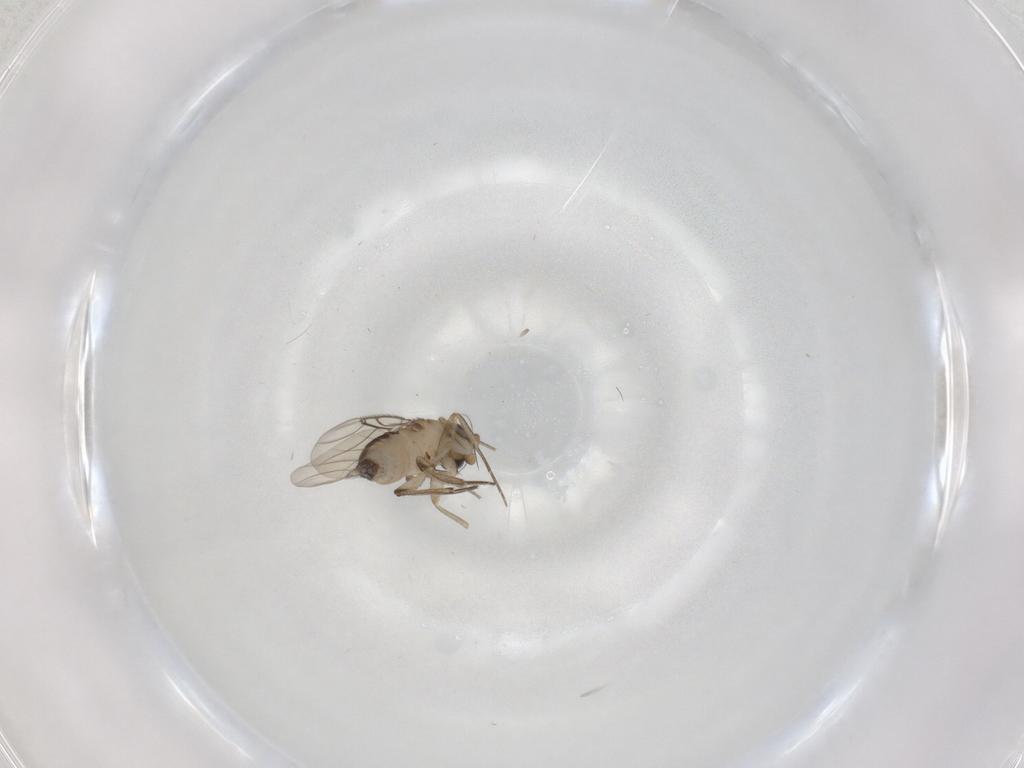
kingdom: Animalia
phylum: Arthropoda
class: Insecta
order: Diptera
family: Phoridae
